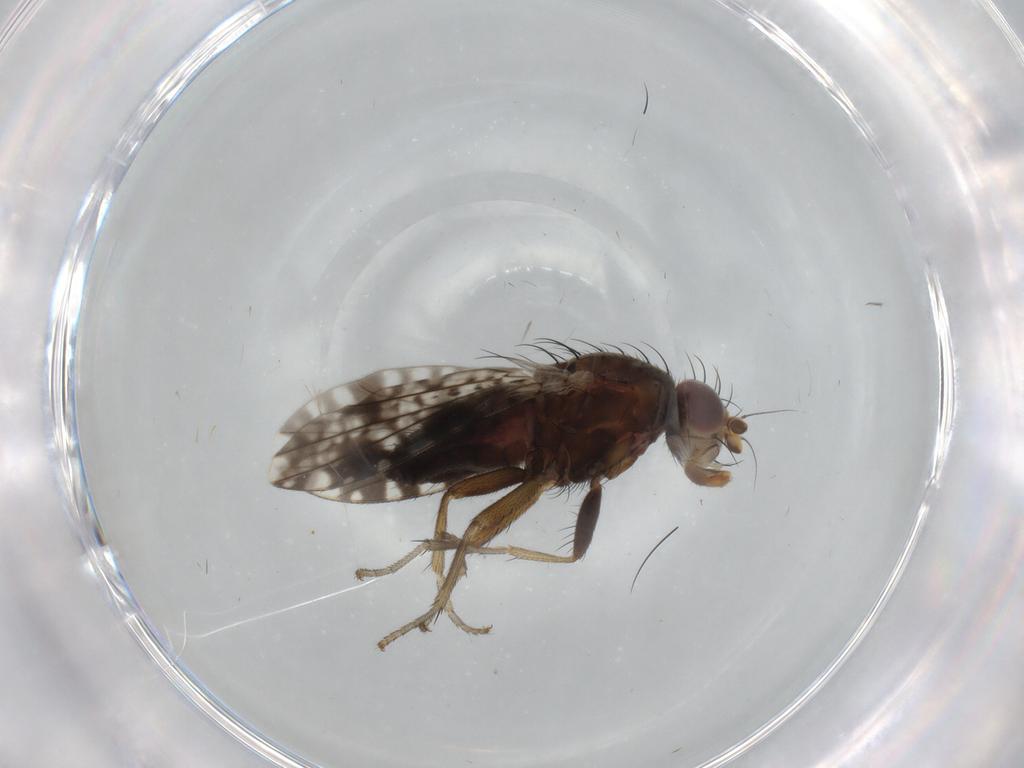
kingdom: Animalia
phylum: Arthropoda
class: Insecta
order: Diptera
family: Tephritidae
